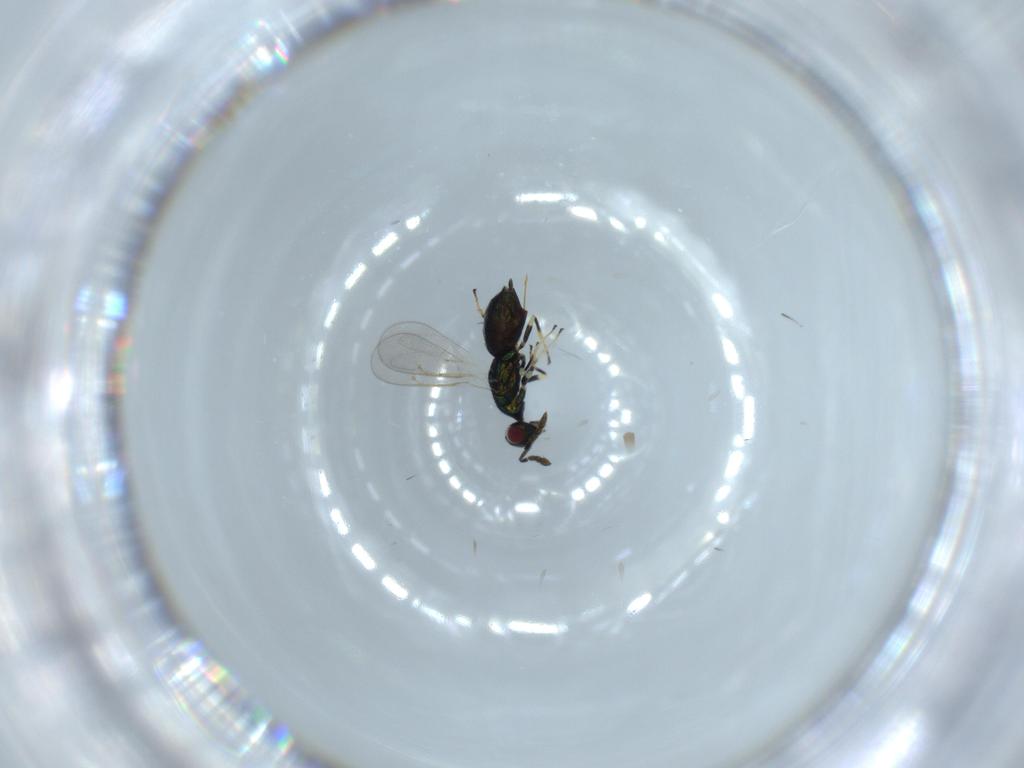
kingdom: Animalia
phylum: Arthropoda
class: Insecta
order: Hymenoptera
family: Eulophidae
